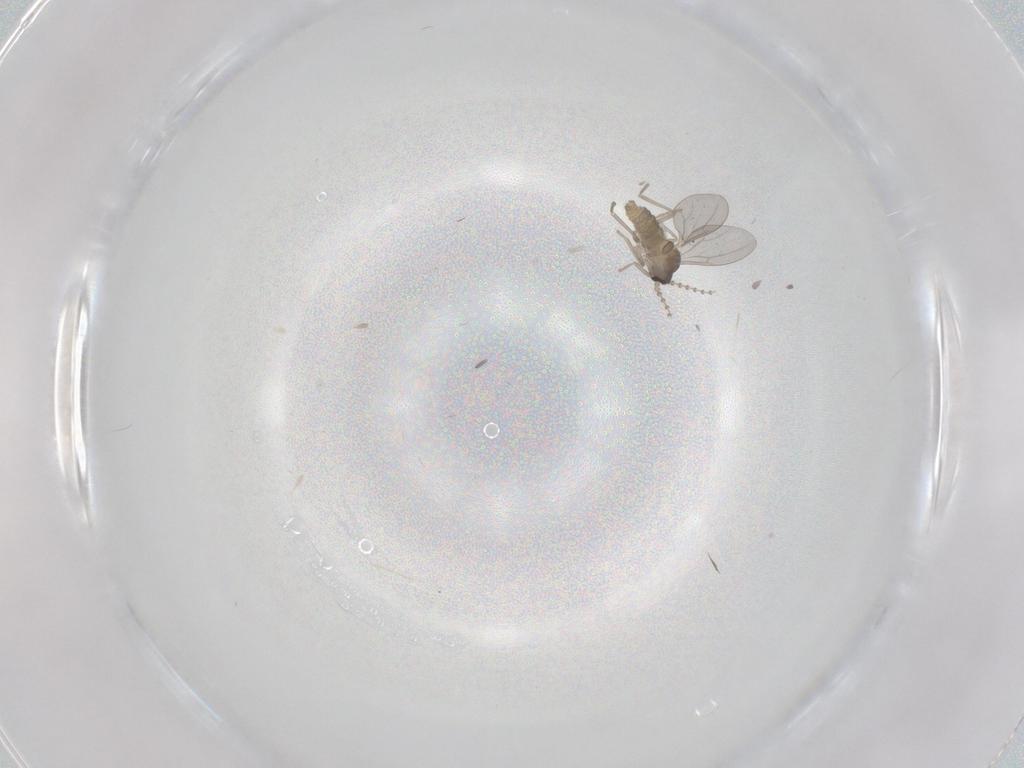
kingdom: Animalia
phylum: Arthropoda
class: Insecta
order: Diptera
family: Cecidomyiidae
